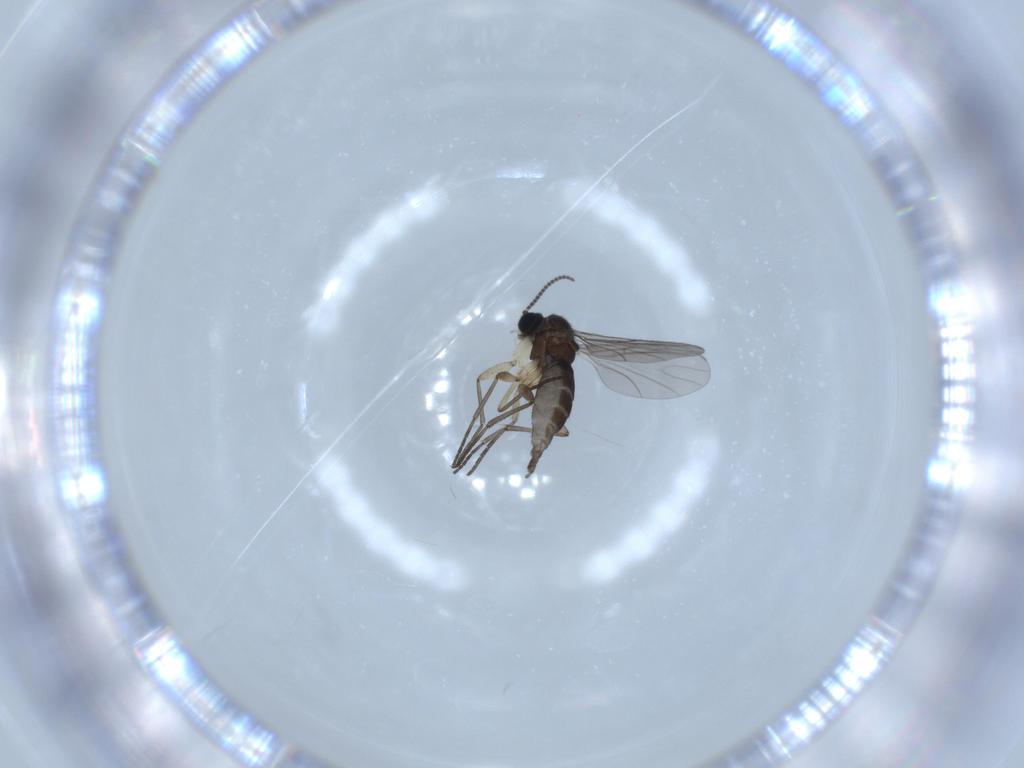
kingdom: Animalia
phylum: Arthropoda
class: Insecta
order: Diptera
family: Sciaridae
